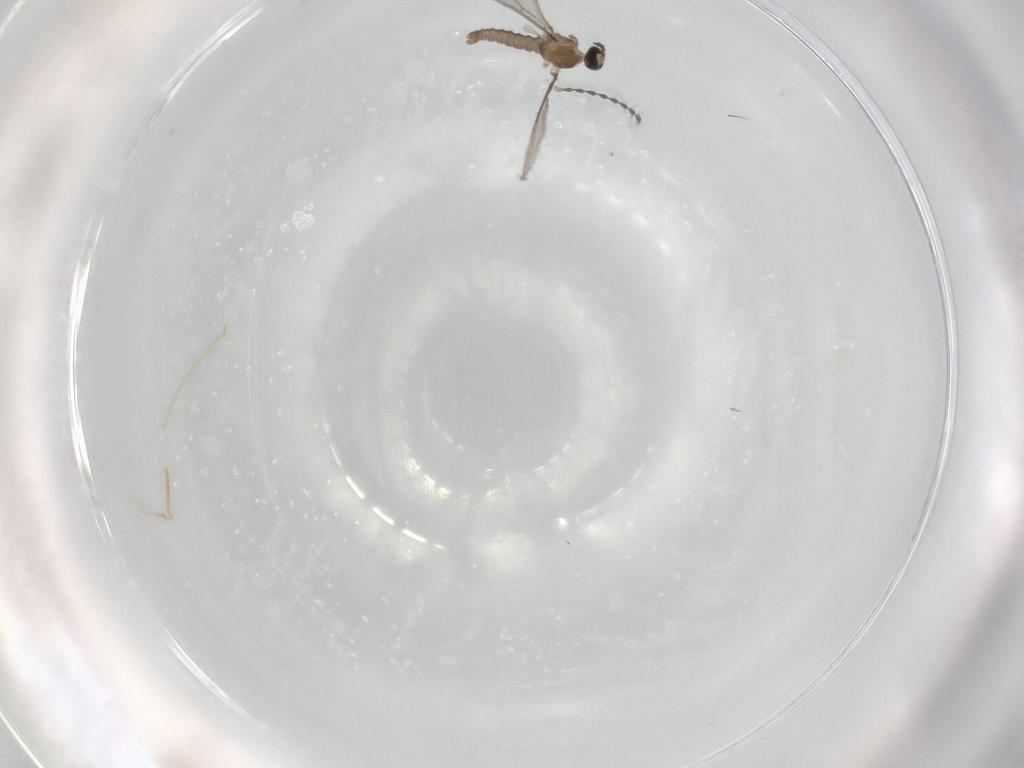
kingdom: Animalia
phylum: Arthropoda
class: Insecta
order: Diptera
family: Cecidomyiidae
